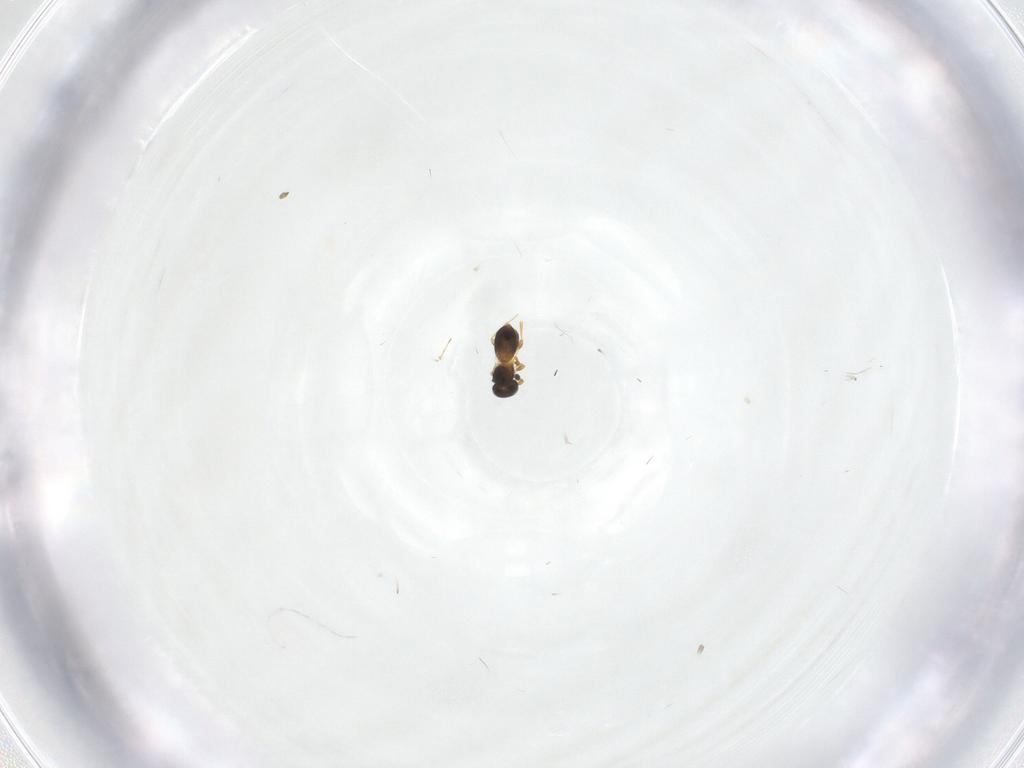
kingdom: Animalia
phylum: Arthropoda
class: Insecta
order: Hymenoptera
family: Platygastridae
